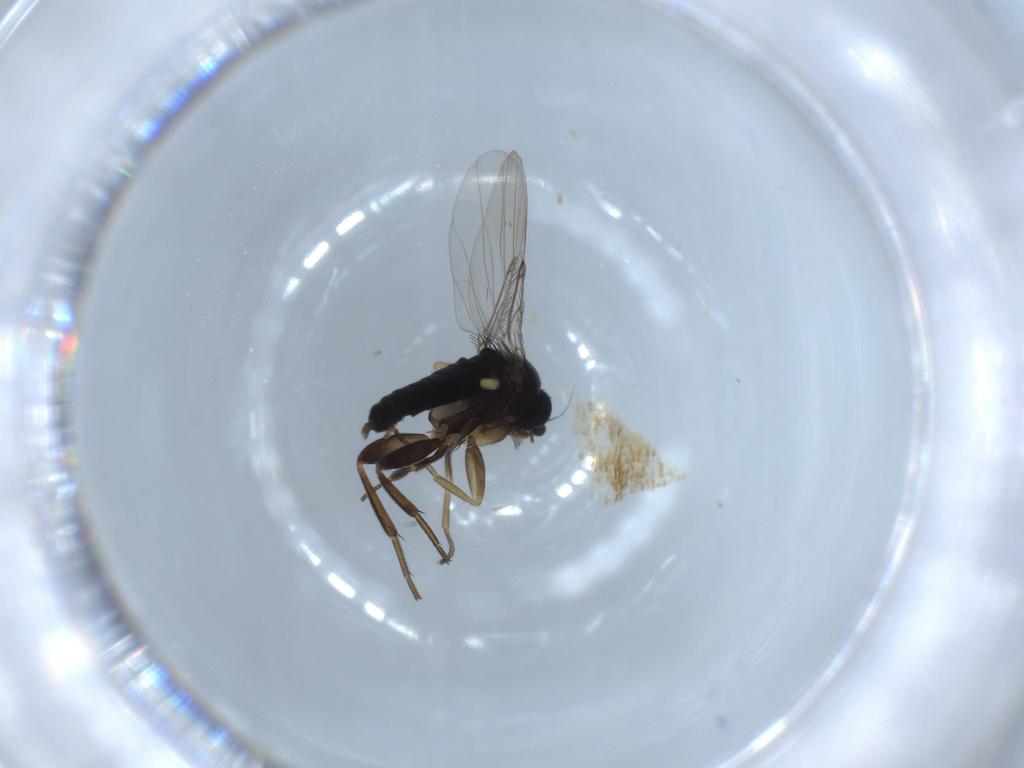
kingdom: Animalia
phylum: Arthropoda
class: Insecta
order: Diptera
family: Phoridae
